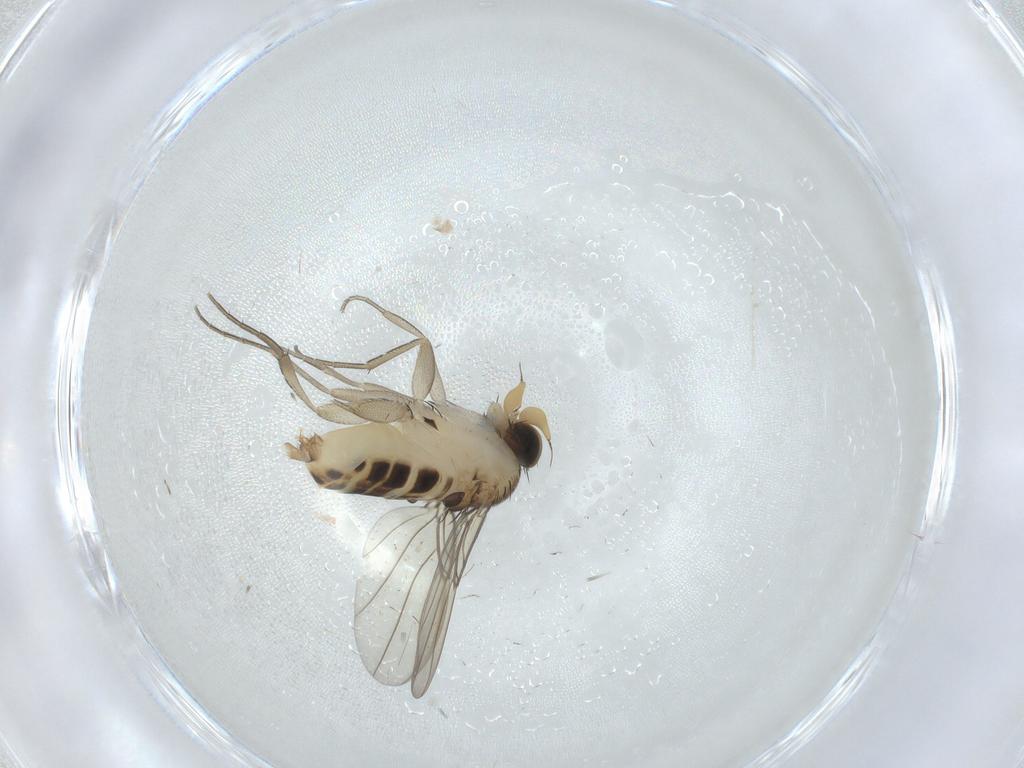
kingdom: Animalia
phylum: Arthropoda
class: Insecta
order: Diptera
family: Phoridae
